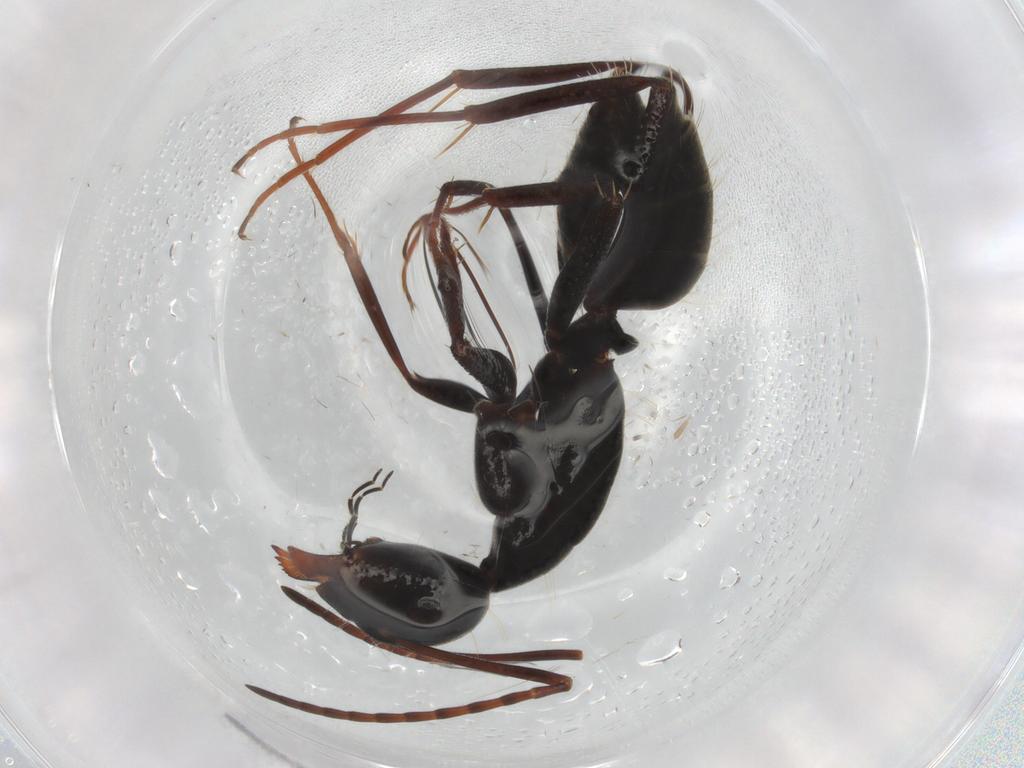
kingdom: Animalia
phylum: Arthropoda
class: Insecta
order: Hymenoptera
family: Formicidae
